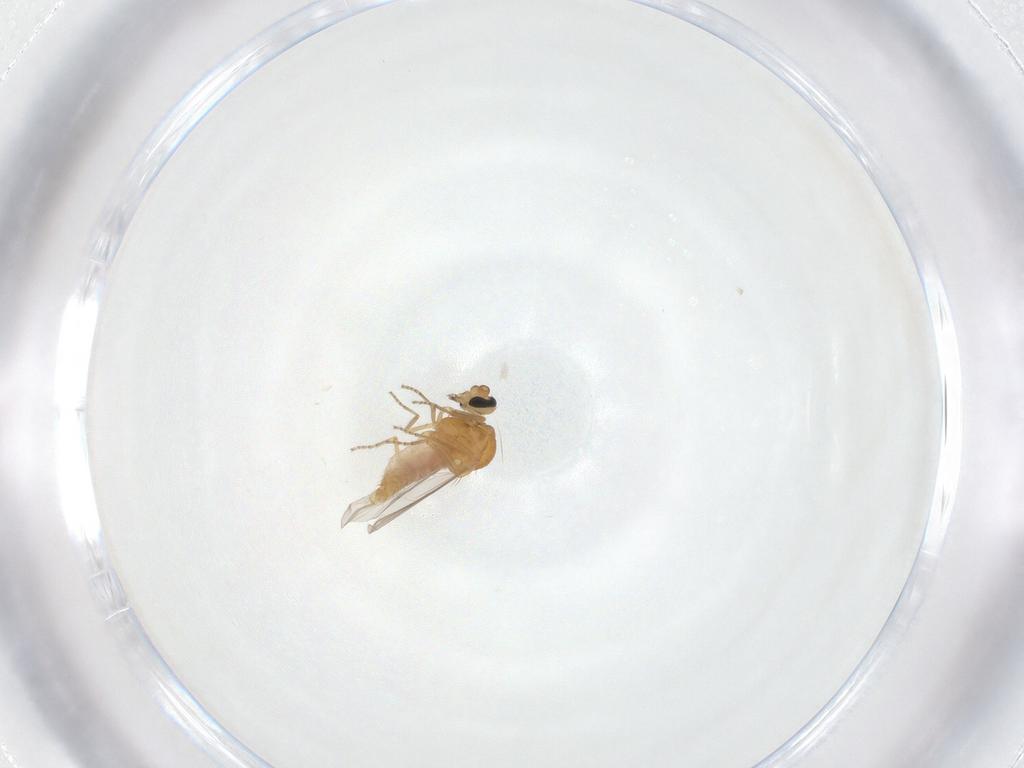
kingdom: Animalia
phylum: Arthropoda
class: Insecta
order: Diptera
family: Ceratopogonidae
